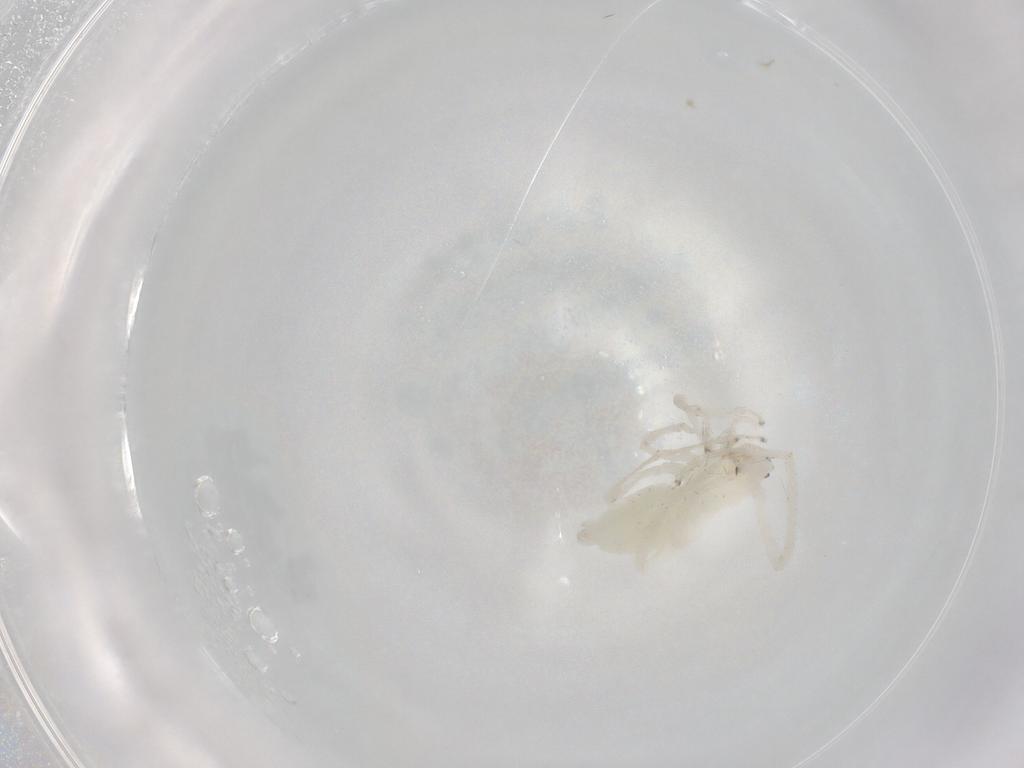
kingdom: Animalia
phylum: Arthropoda
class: Arachnida
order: Araneae
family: Anyphaenidae
